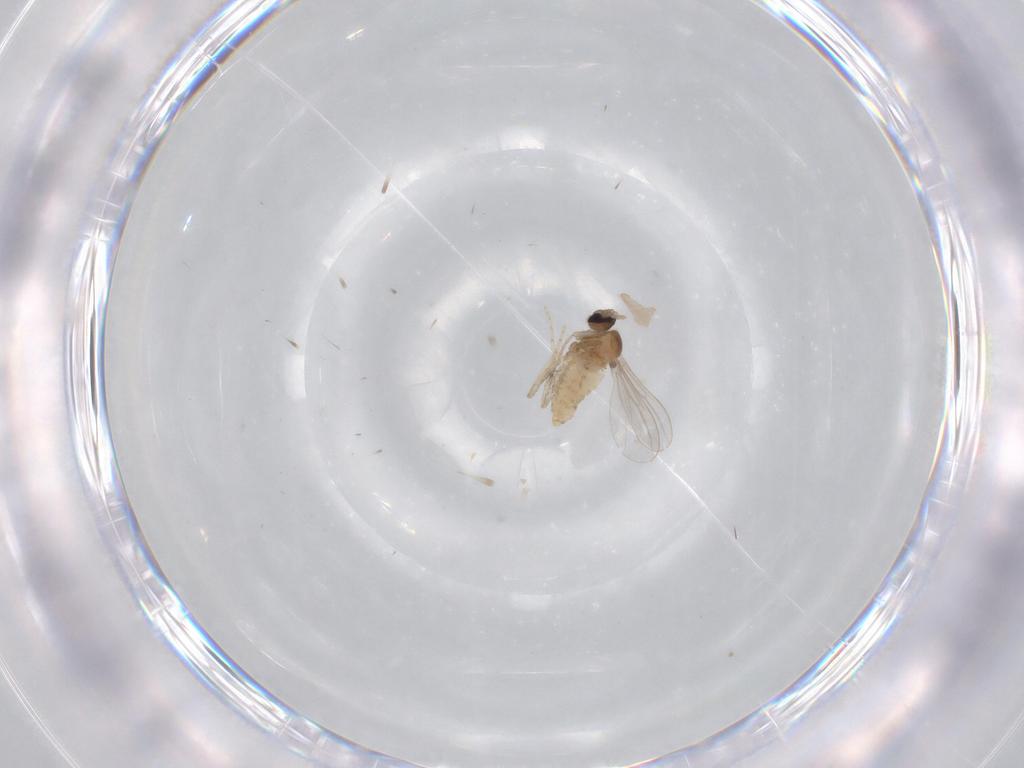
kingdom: Animalia
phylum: Arthropoda
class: Insecta
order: Diptera
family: Cecidomyiidae
